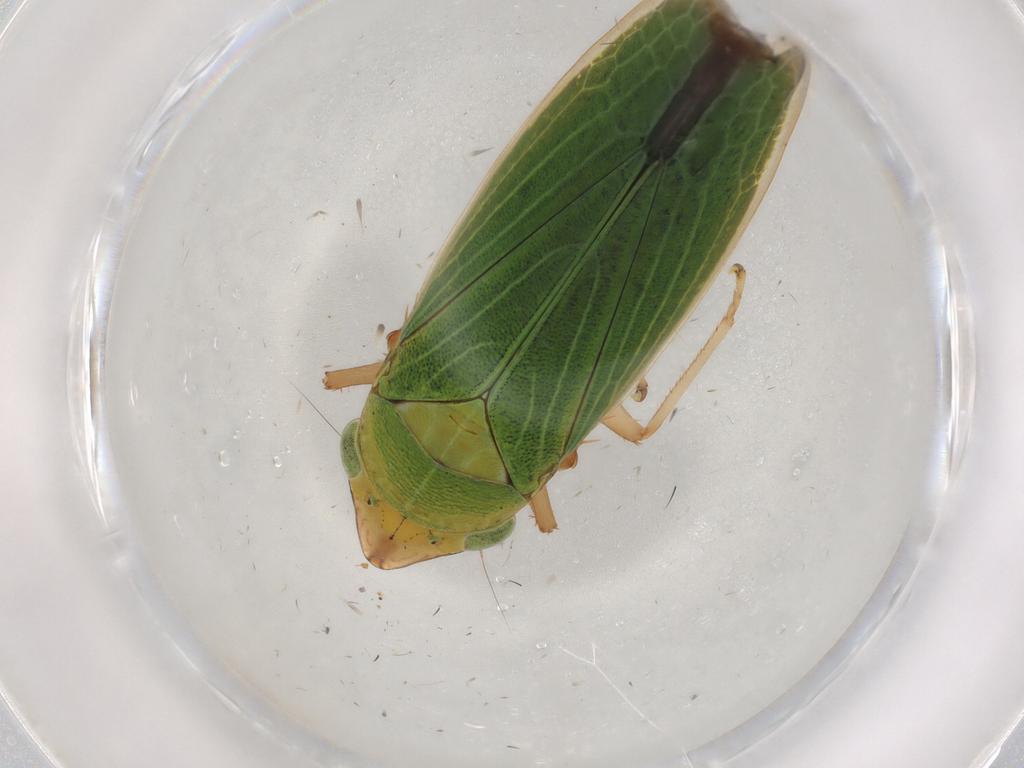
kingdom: Animalia
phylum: Arthropoda
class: Insecta
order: Hemiptera
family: Cicadellidae
